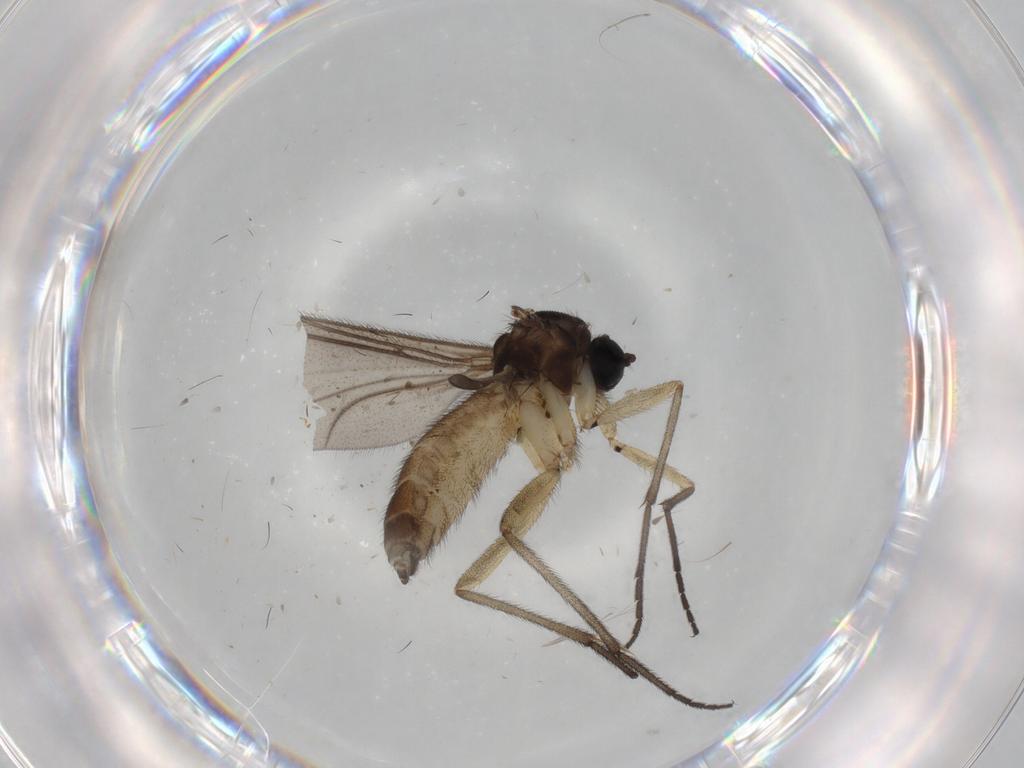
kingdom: Animalia
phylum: Arthropoda
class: Insecta
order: Diptera
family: Sciaridae
